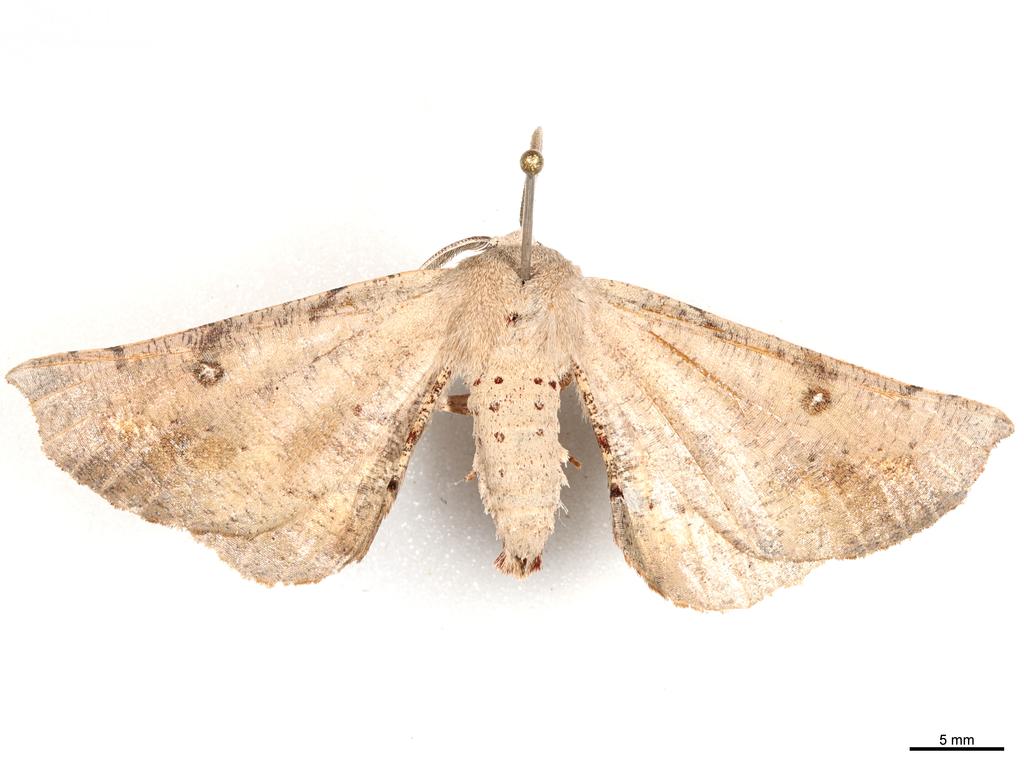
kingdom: Animalia
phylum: Arthropoda
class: Insecta
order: Lepidoptera
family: Geometridae
